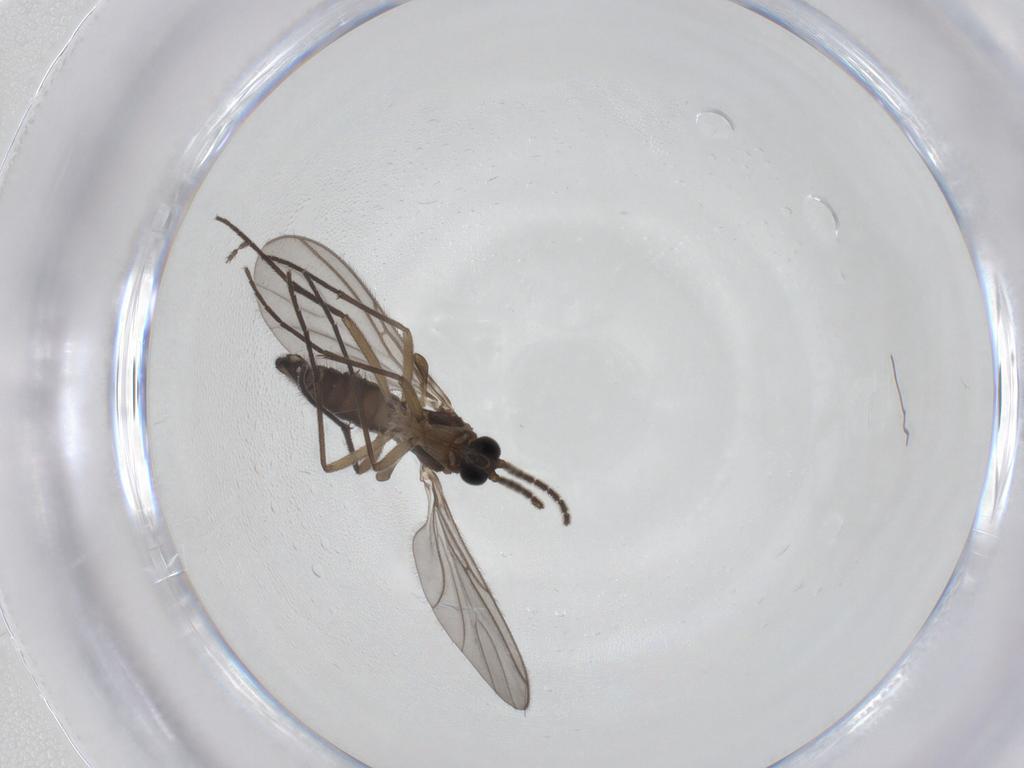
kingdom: Animalia
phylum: Arthropoda
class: Insecta
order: Diptera
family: Sciaridae
